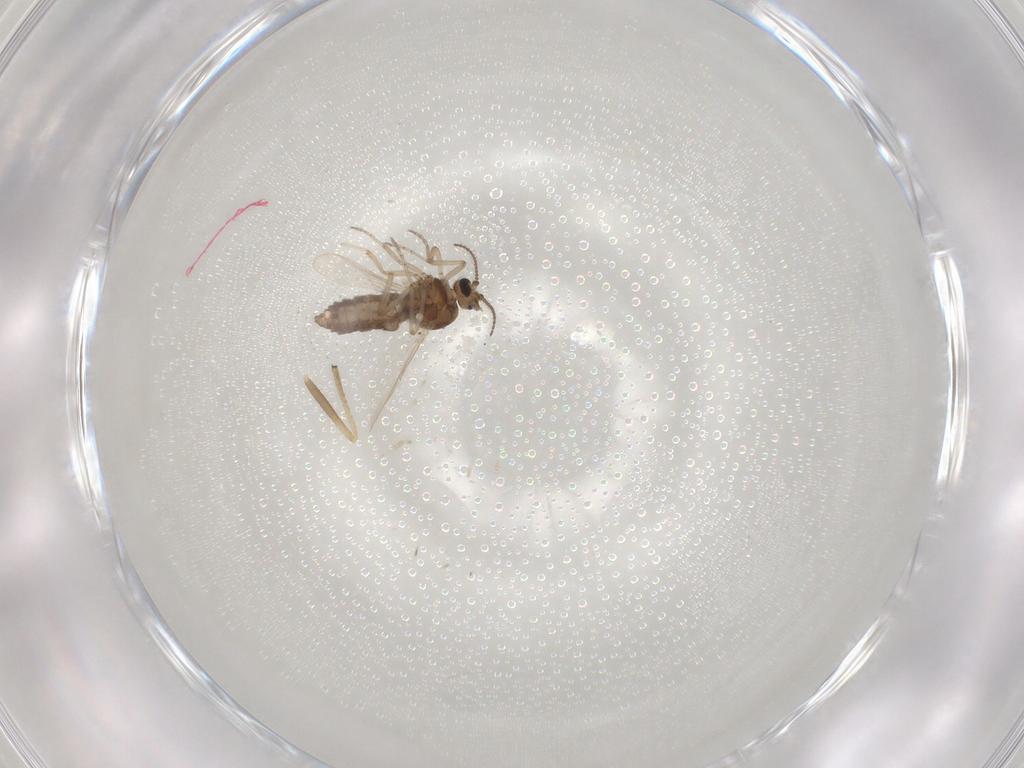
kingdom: Animalia
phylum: Arthropoda
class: Insecta
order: Diptera
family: Ceratopogonidae
